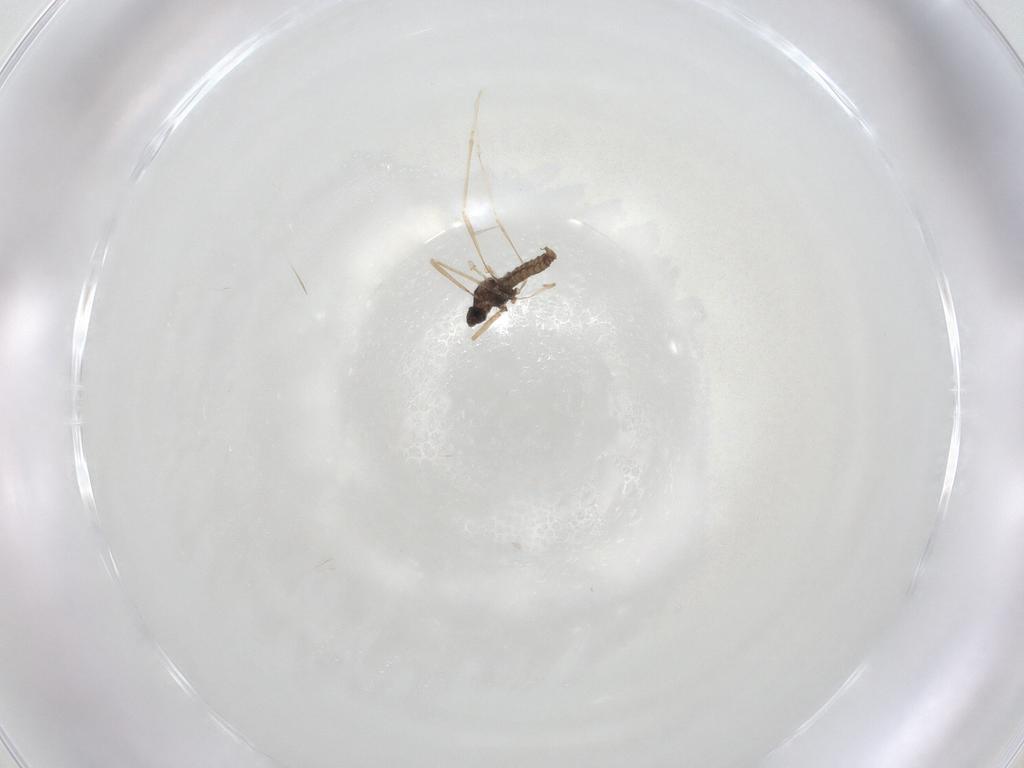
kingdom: Animalia
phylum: Arthropoda
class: Insecta
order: Diptera
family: Cecidomyiidae
